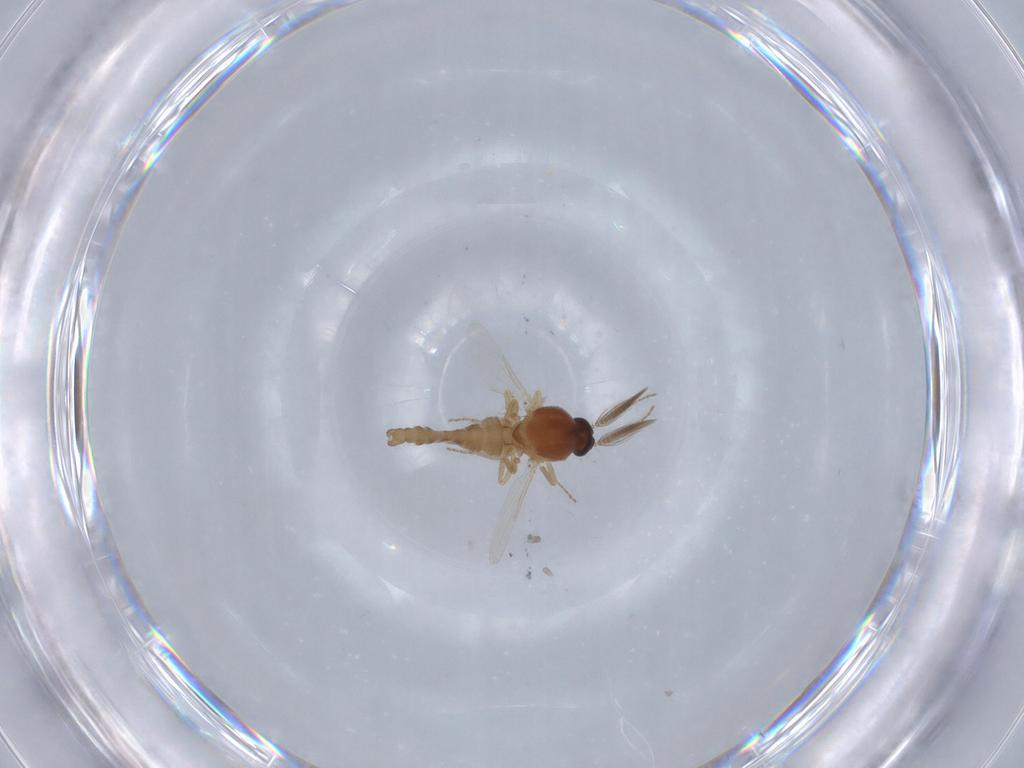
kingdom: Animalia
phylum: Arthropoda
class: Insecta
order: Diptera
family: Ceratopogonidae
